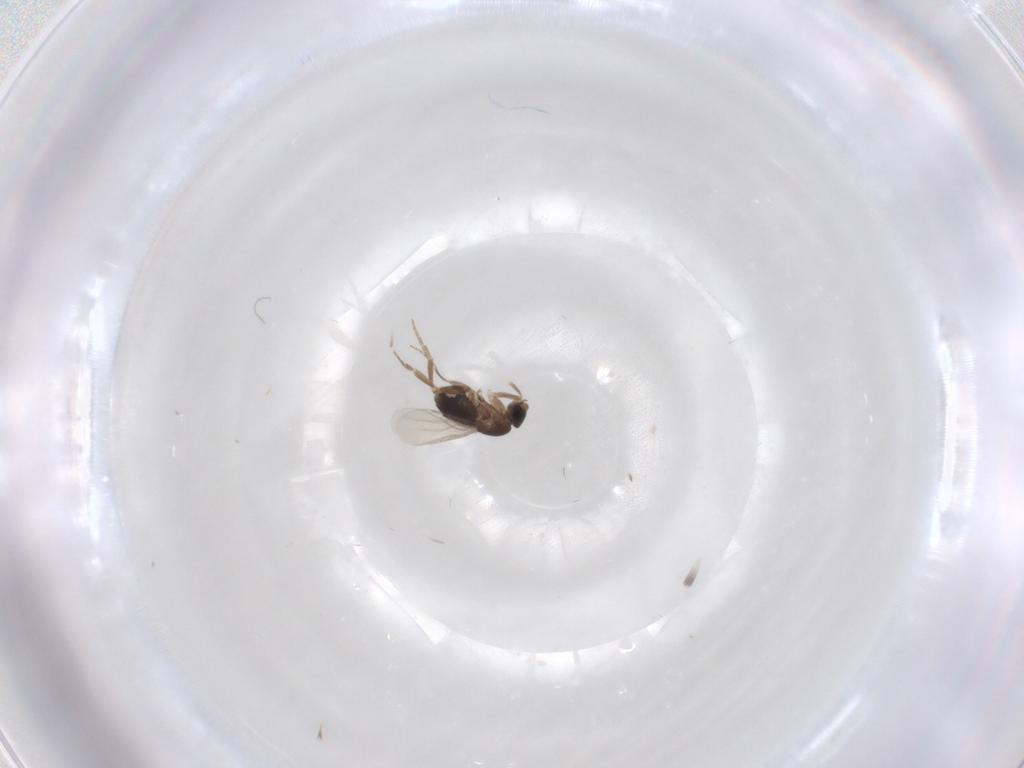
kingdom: Animalia
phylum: Arthropoda
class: Insecta
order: Diptera
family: Phoridae
